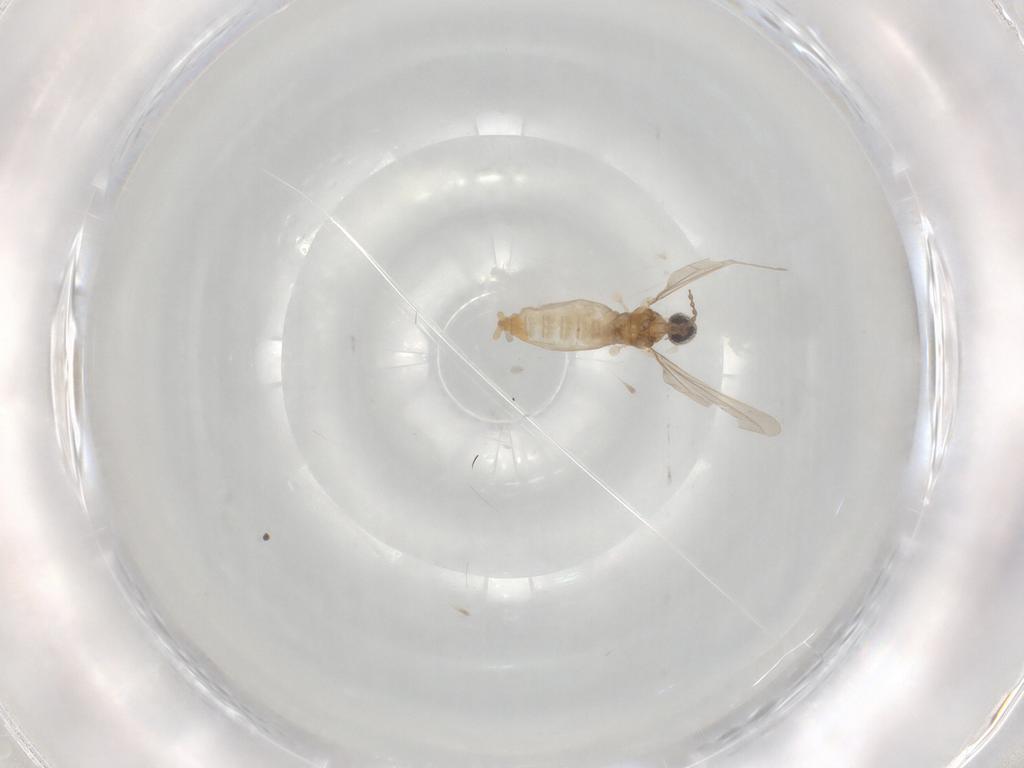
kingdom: Animalia
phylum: Arthropoda
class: Insecta
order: Diptera
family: Cecidomyiidae
